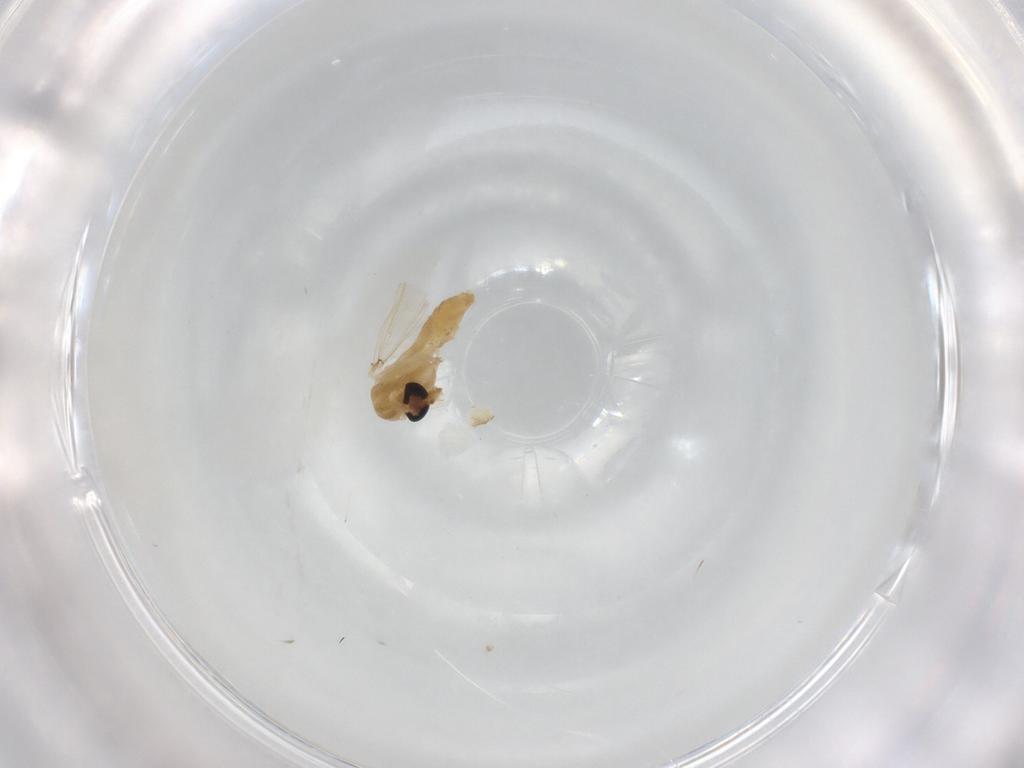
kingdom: Animalia
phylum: Arthropoda
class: Insecta
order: Diptera
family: Chironomidae
